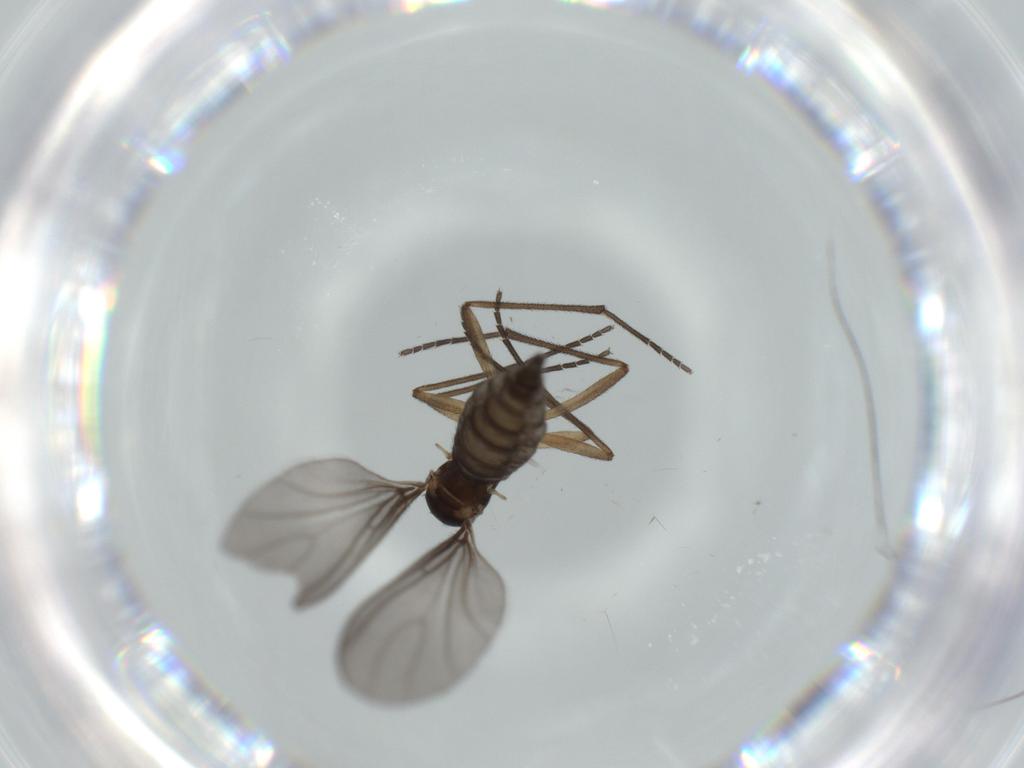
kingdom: Animalia
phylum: Arthropoda
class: Insecta
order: Diptera
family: Sciaridae
